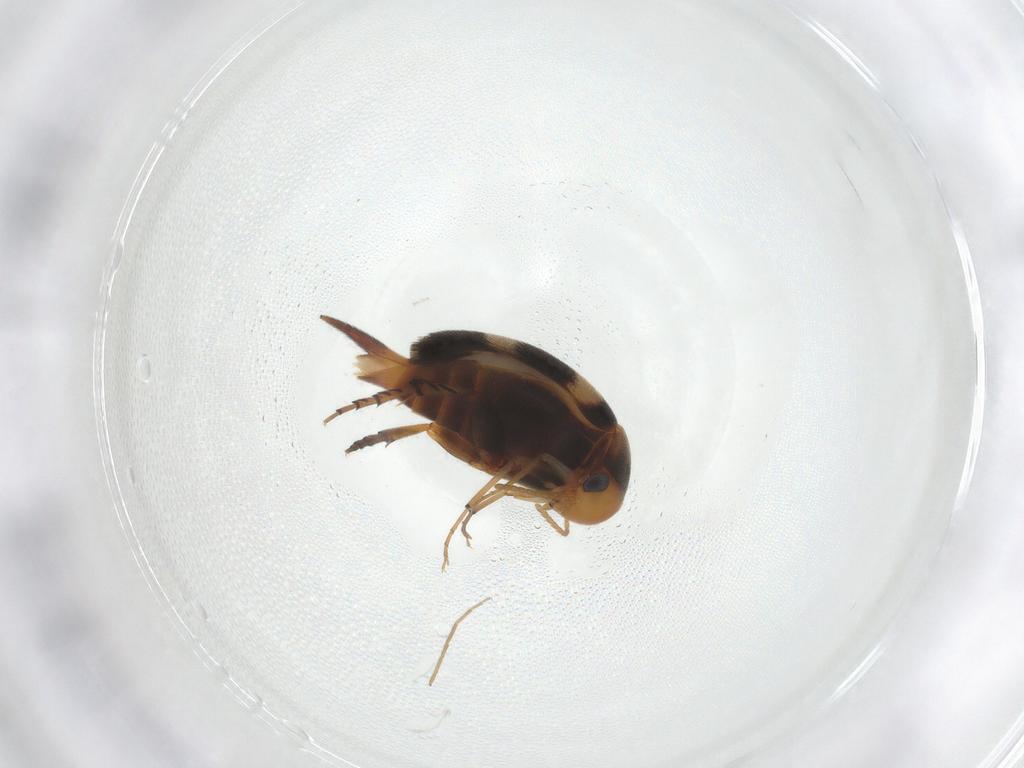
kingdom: Animalia
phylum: Arthropoda
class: Insecta
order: Coleoptera
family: Mordellidae
